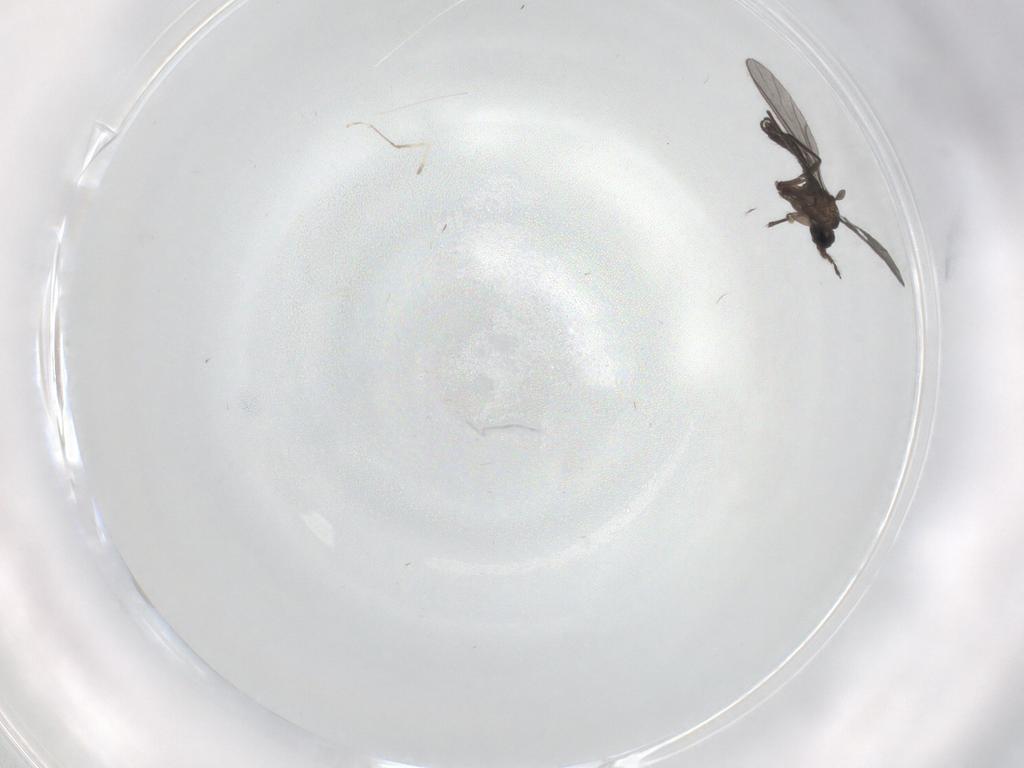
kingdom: Animalia
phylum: Arthropoda
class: Insecta
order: Diptera
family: Sciaridae
